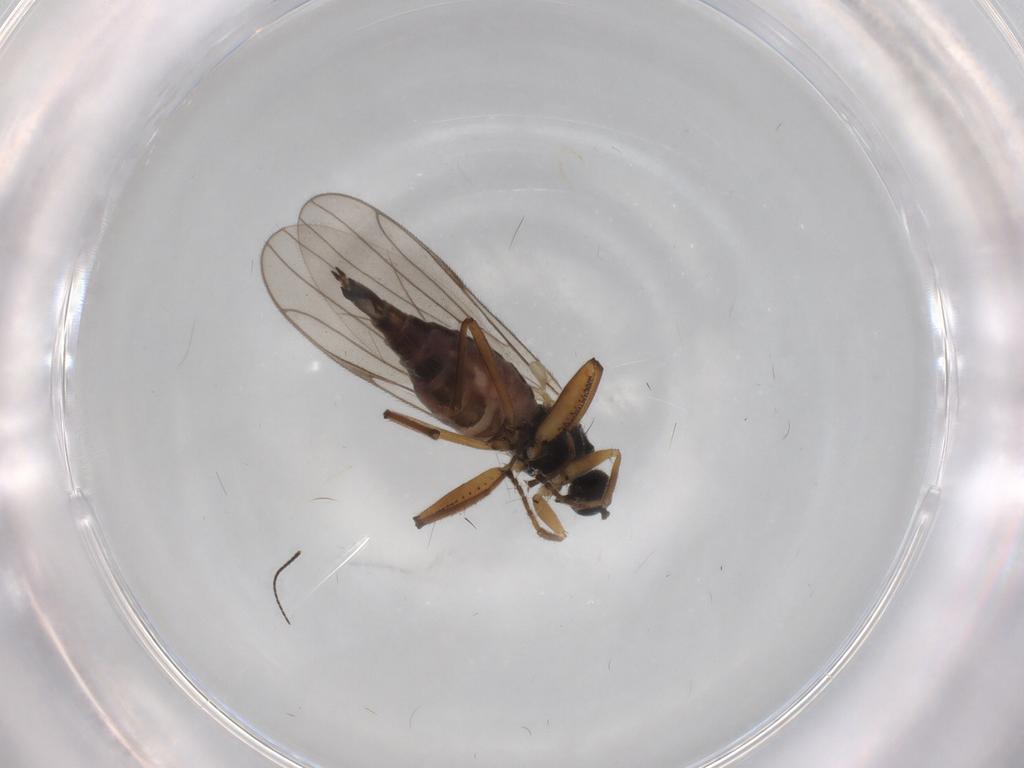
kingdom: Animalia
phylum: Arthropoda
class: Insecta
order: Diptera
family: Hybotidae
